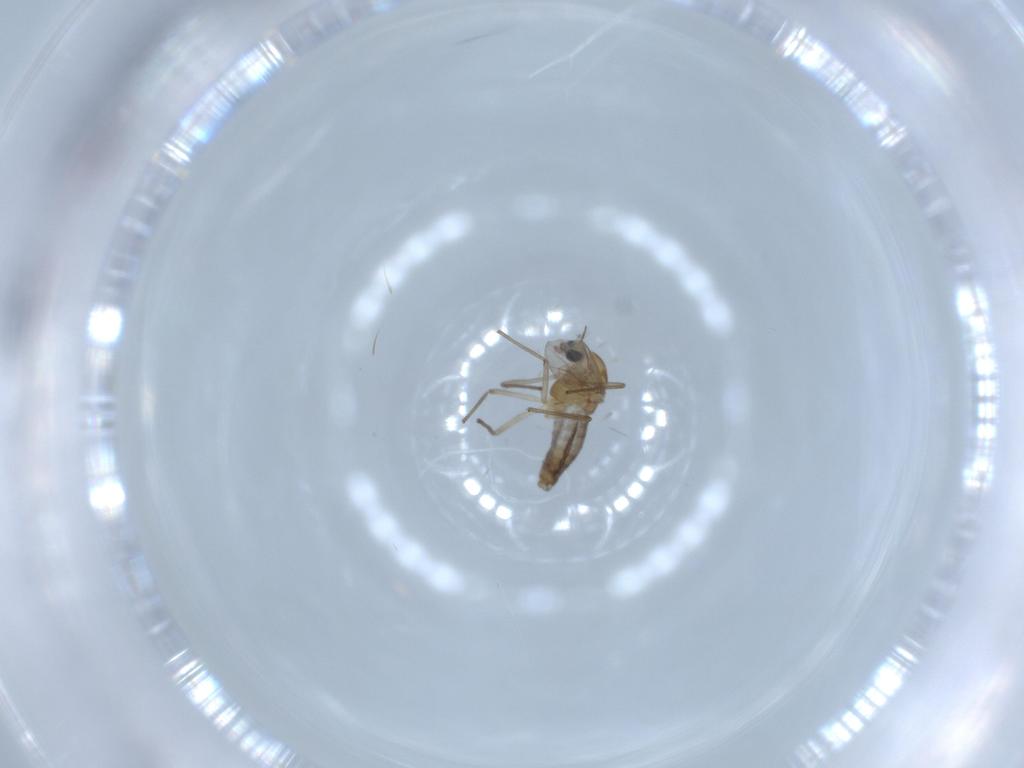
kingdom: Animalia
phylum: Arthropoda
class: Insecta
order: Diptera
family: Chironomidae
